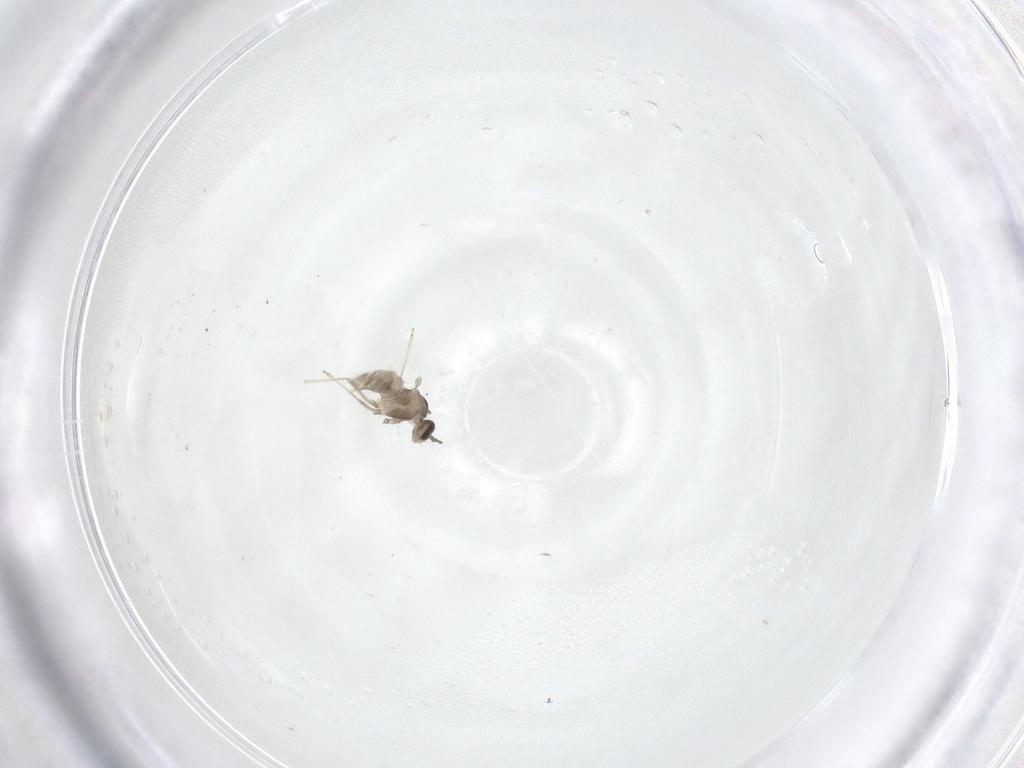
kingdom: Animalia
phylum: Arthropoda
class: Insecta
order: Diptera
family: Cecidomyiidae
